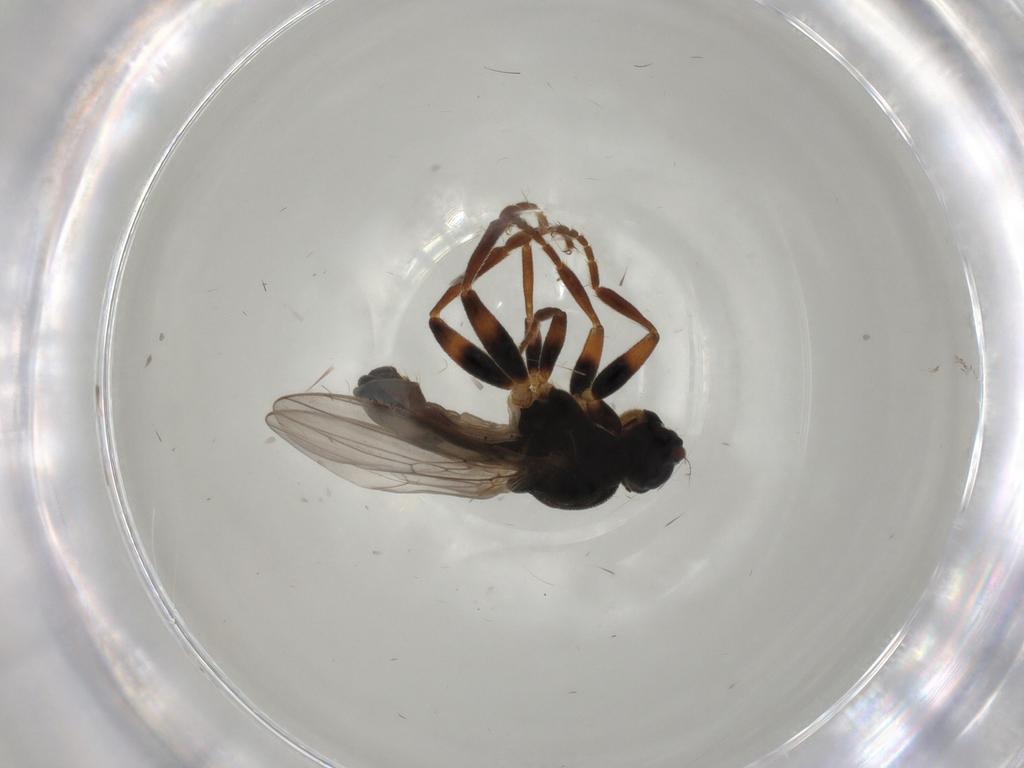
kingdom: Animalia
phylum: Arthropoda
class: Insecta
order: Diptera
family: Sphaeroceridae
